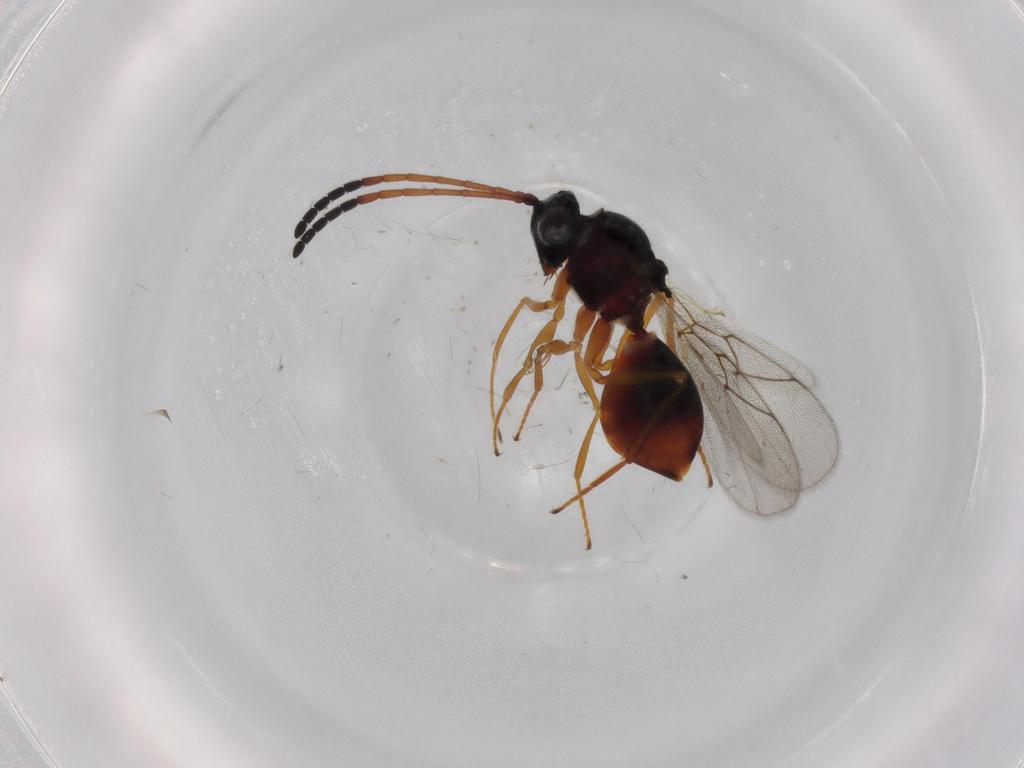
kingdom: Animalia
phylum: Arthropoda
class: Insecta
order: Hymenoptera
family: Figitidae
